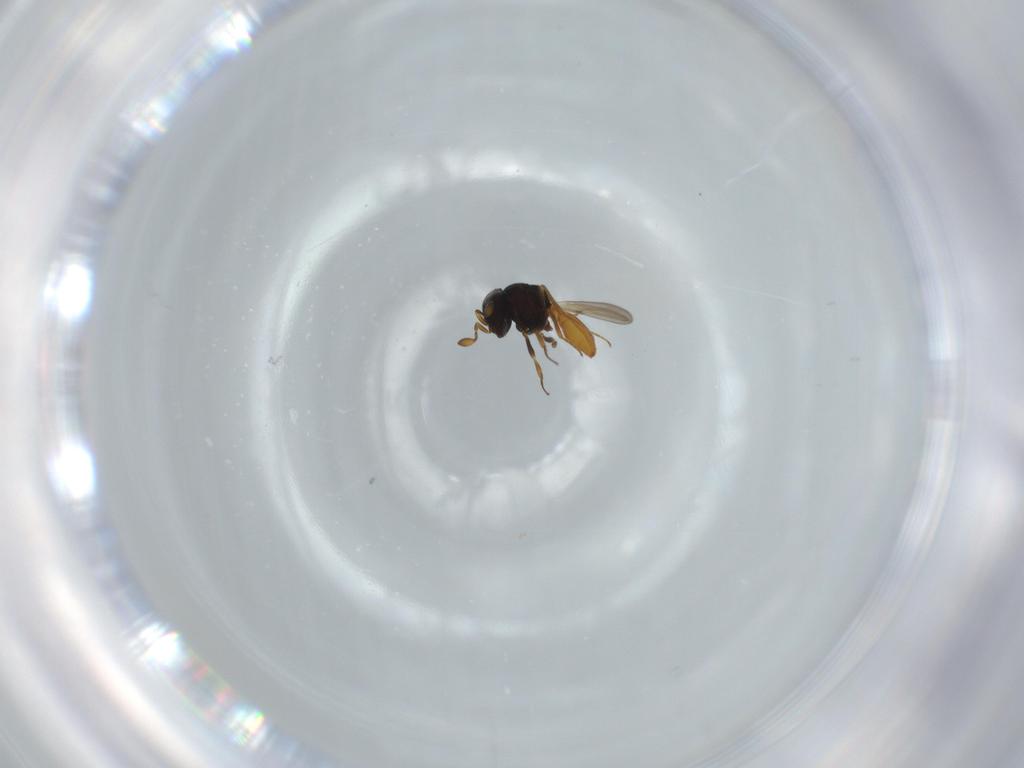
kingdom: Animalia
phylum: Arthropoda
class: Insecta
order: Hymenoptera
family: Scelionidae
